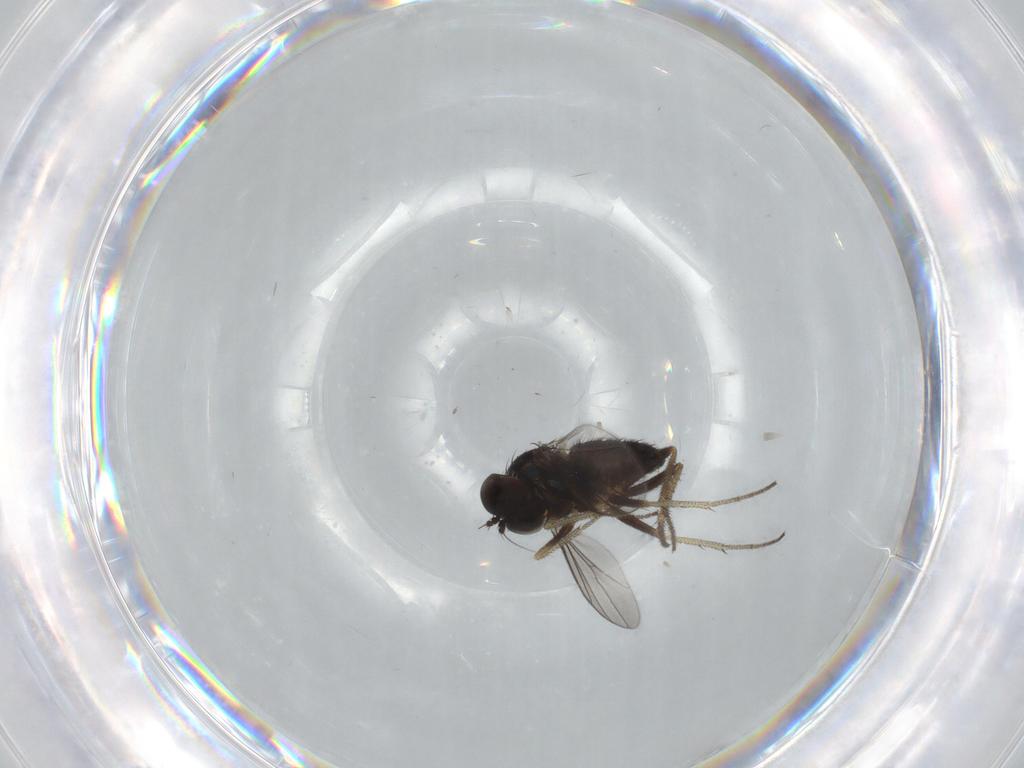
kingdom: Animalia
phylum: Arthropoda
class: Insecta
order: Diptera
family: Dolichopodidae
